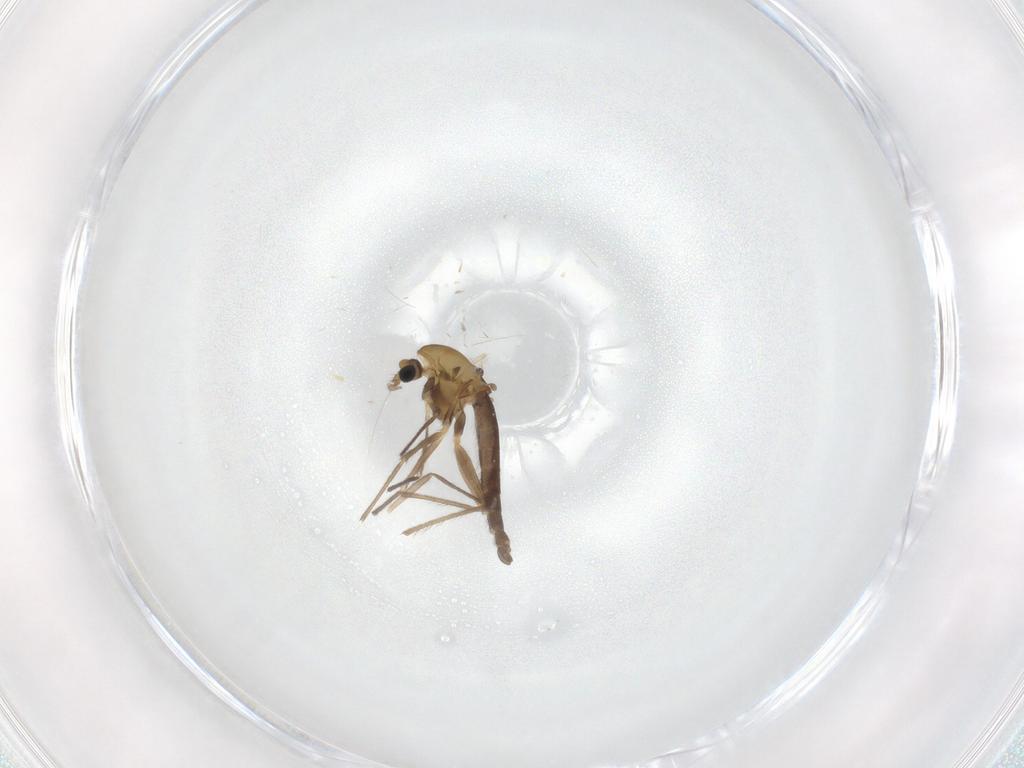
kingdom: Animalia
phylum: Arthropoda
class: Insecta
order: Diptera
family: Chironomidae
